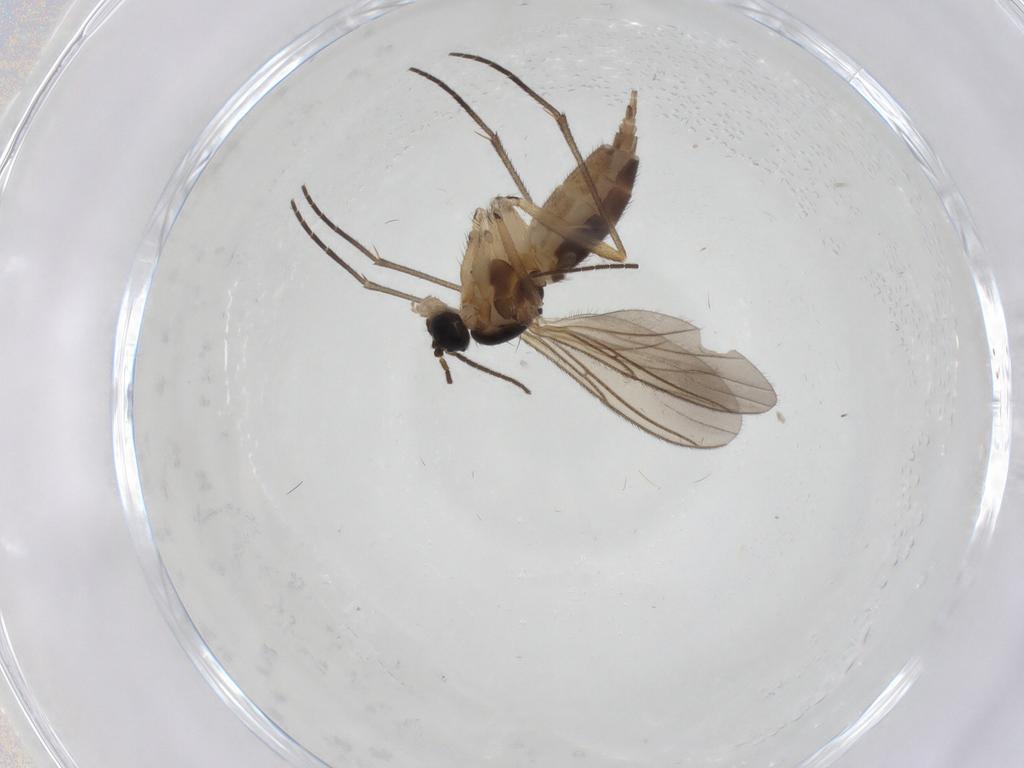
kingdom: Animalia
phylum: Arthropoda
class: Insecta
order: Diptera
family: Sciaridae
